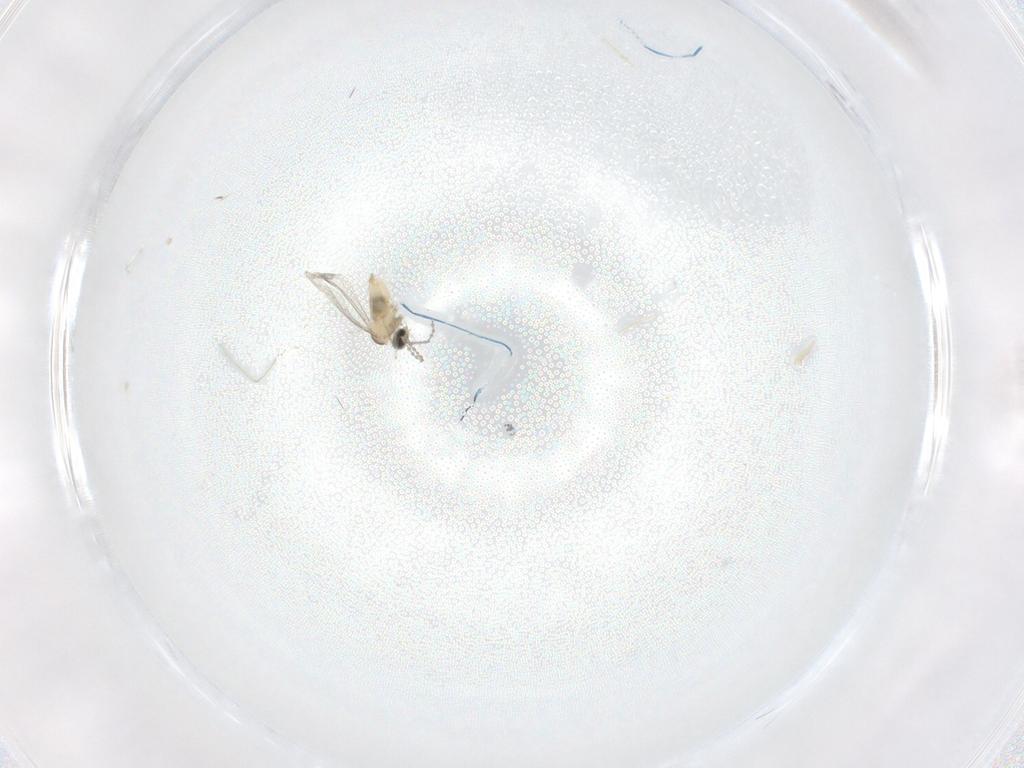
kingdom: Animalia
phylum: Arthropoda
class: Insecta
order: Diptera
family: Cecidomyiidae
